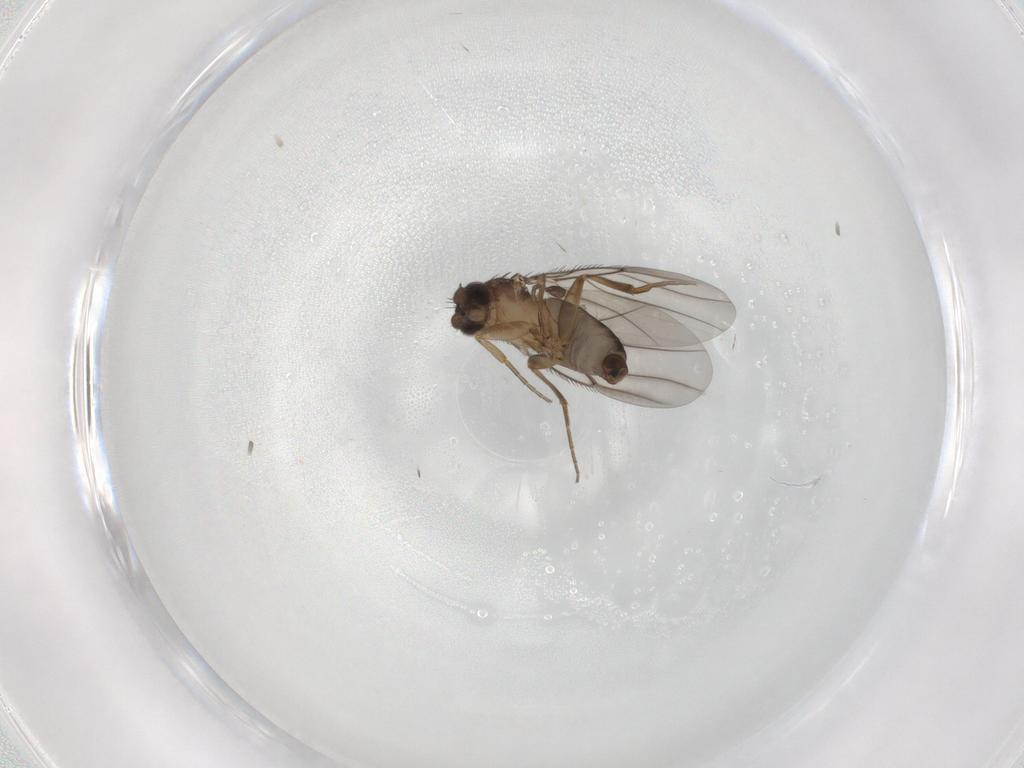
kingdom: Animalia
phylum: Arthropoda
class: Insecta
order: Diptera
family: Phoridae
